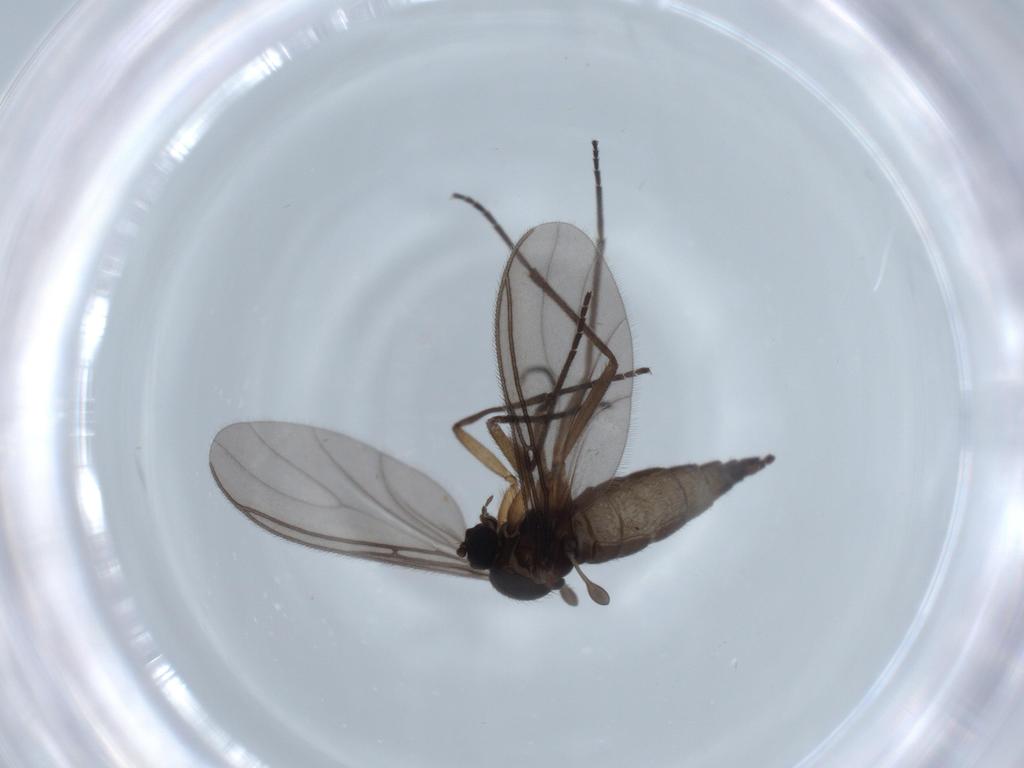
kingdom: Animalia
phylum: Arthropoda
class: Insecta
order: Diptera
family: Sciaridae
